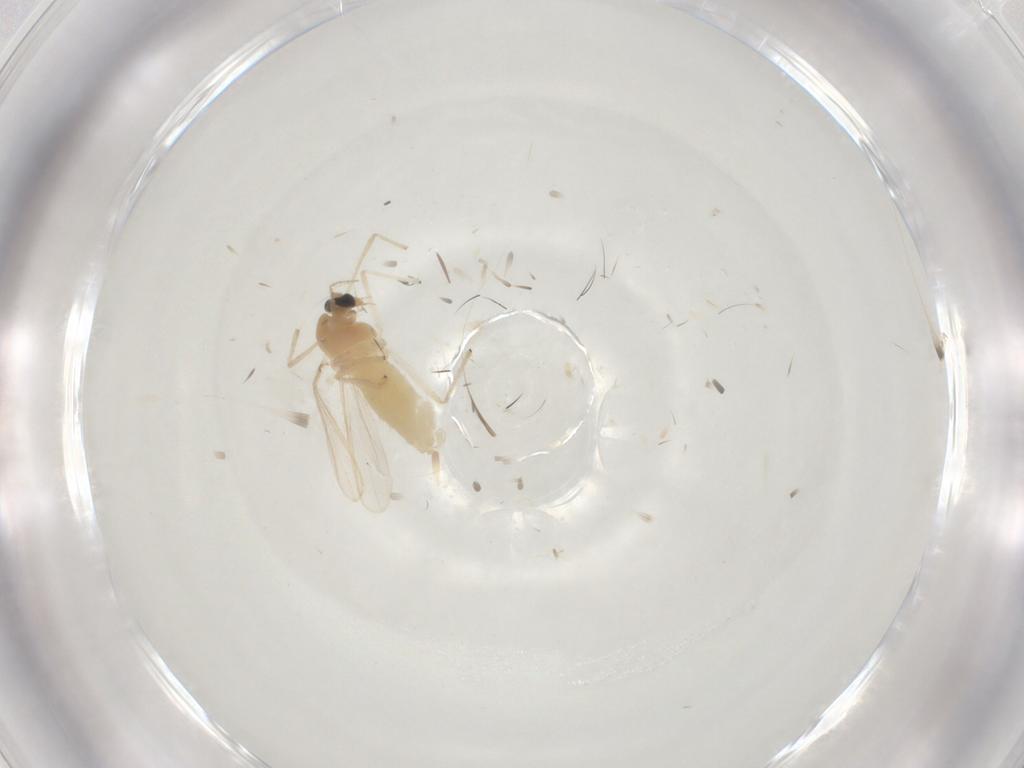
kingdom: Animalia
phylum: Arthropoda
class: Insecta
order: Diptera
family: Chironomidae
